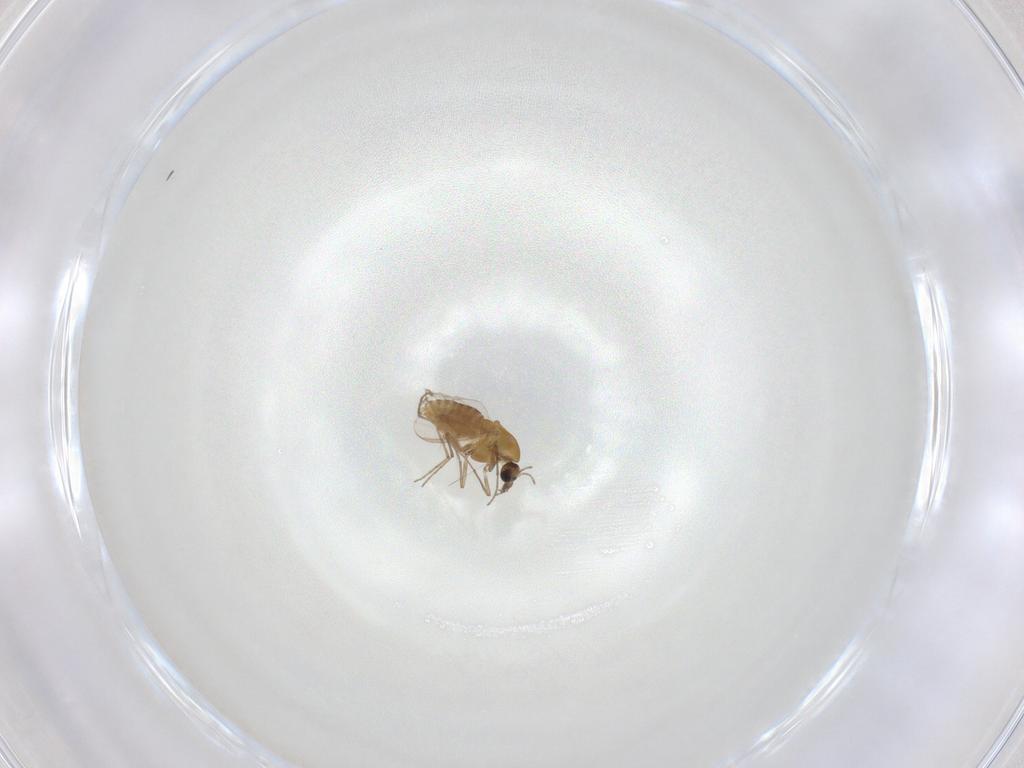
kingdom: Animalia
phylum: Arthropoda
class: Insecta
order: Diptera
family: Chironomidae
